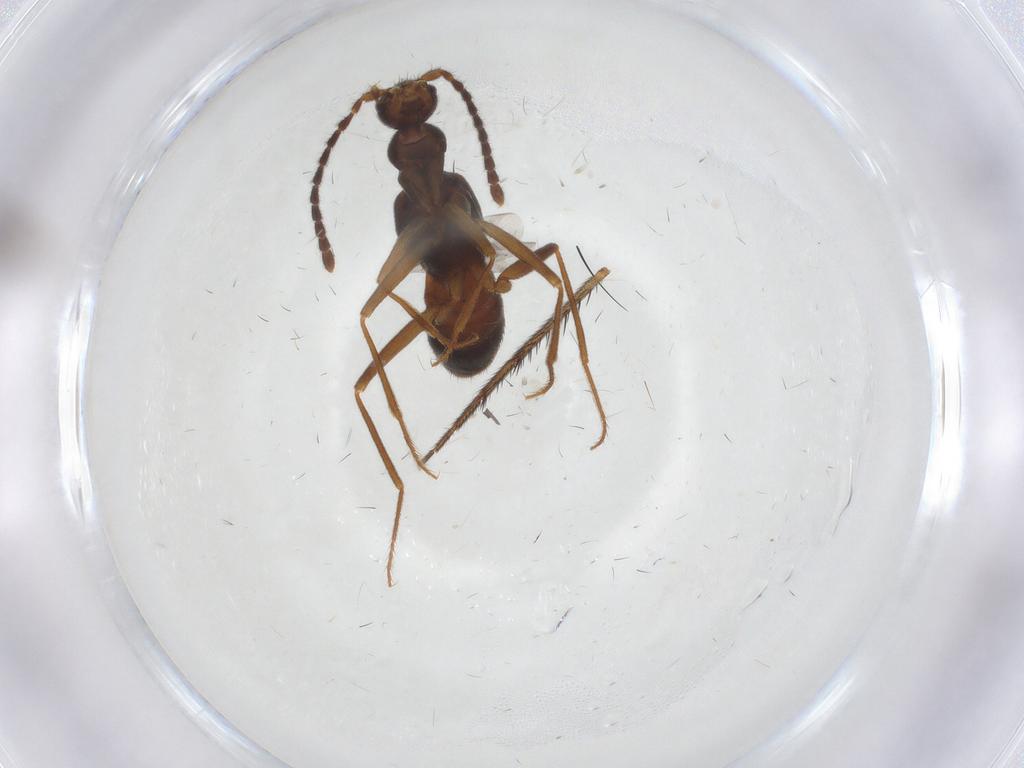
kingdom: Animalia
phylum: Arthropoda
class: Insecta
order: Coleoptera
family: Staphylinidae
